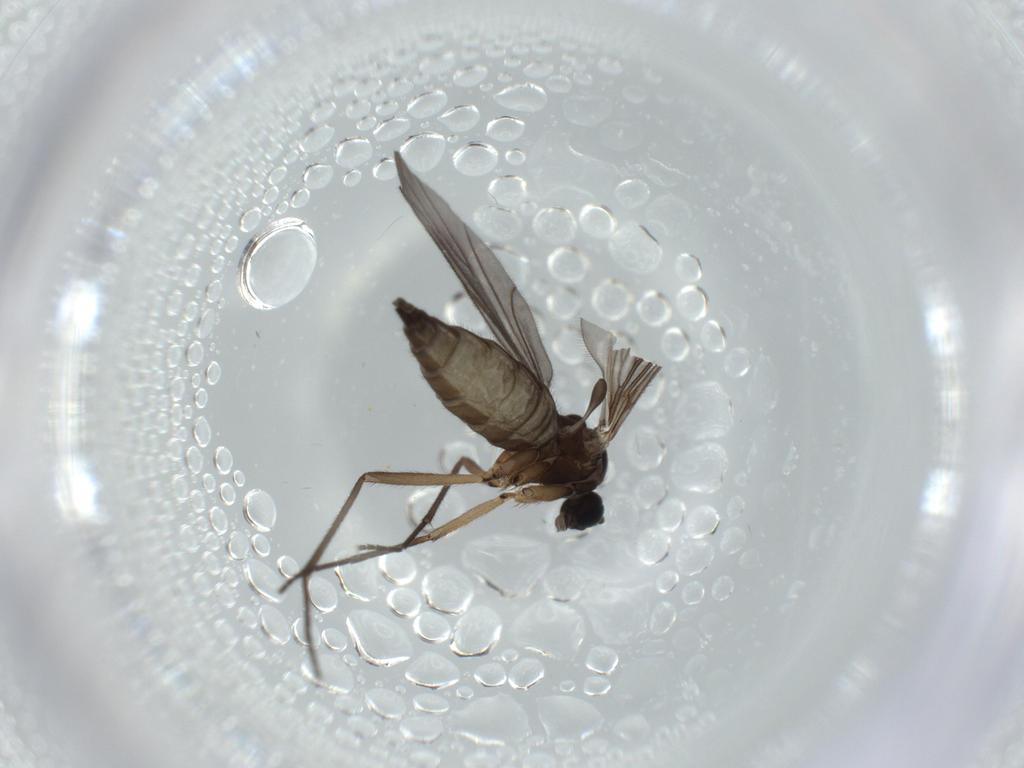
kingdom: Animalia
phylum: Arthropoda
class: Insecta
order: Diptera
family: Sciaridae
